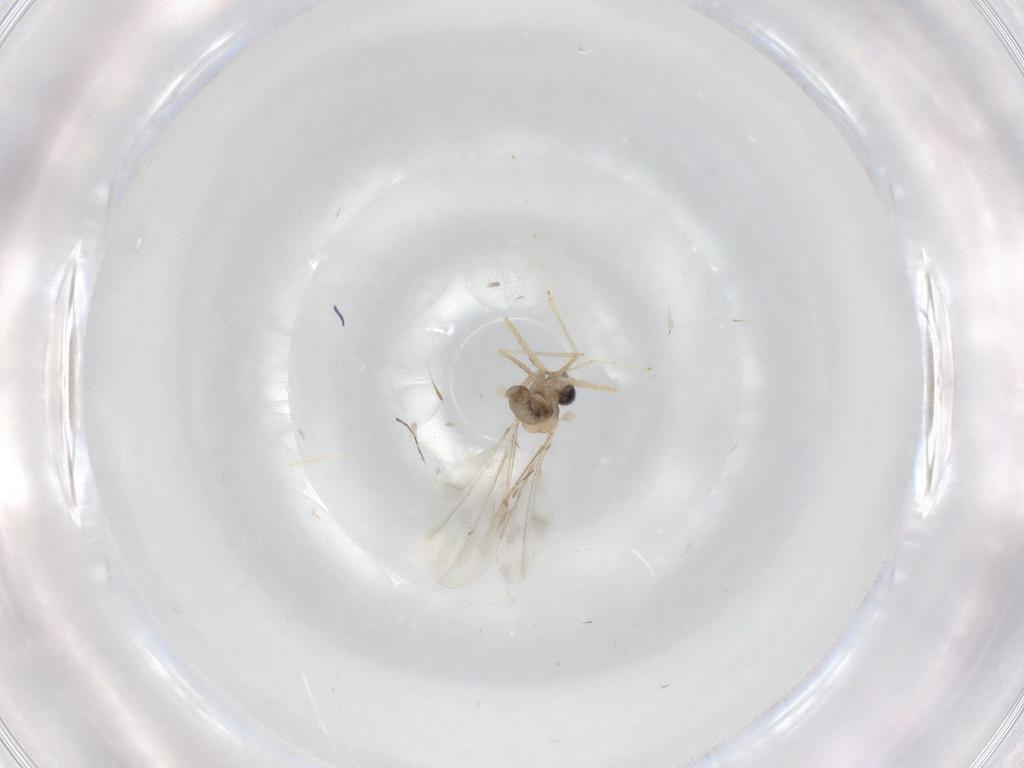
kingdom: Animalia
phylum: Arthropoda
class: Insecta
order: Diptera
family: Cecidomyiidae
